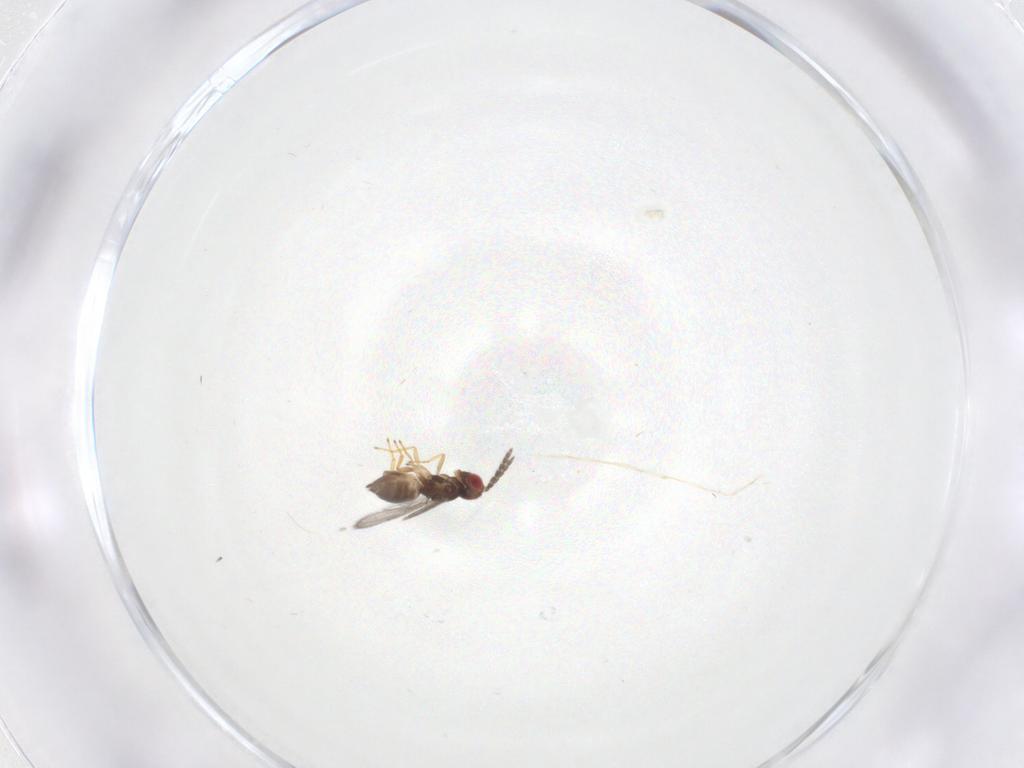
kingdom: Animalia
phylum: Arthropoda
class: Insecta
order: Hymenoptera
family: Eulophidae
